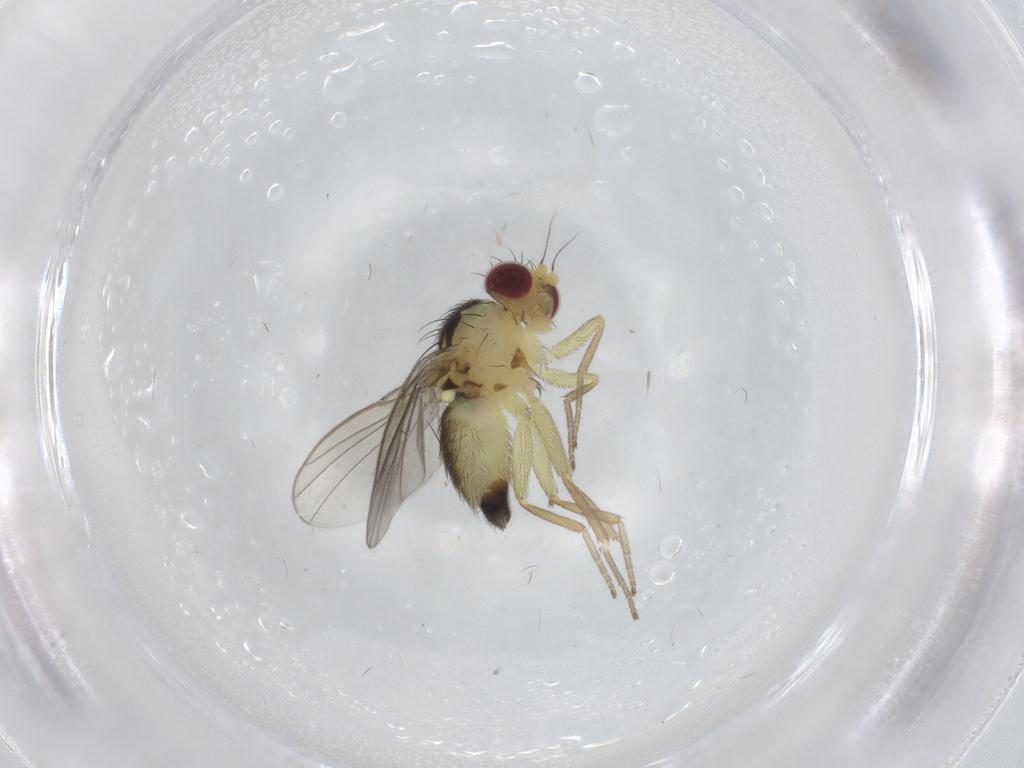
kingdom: Animalia
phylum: Arthropoda
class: Insecta
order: Diptera
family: Agromyzidae
